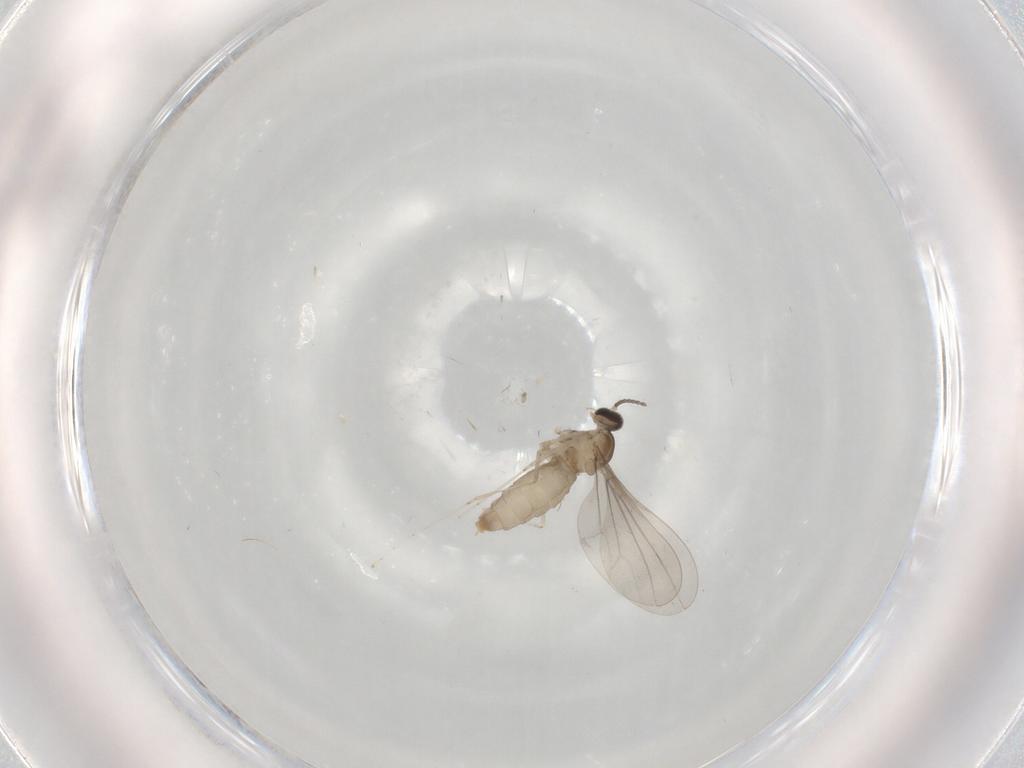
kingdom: Animalia
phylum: Arthropoda
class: Insecta
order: Diptera
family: Cecidomyiidae
